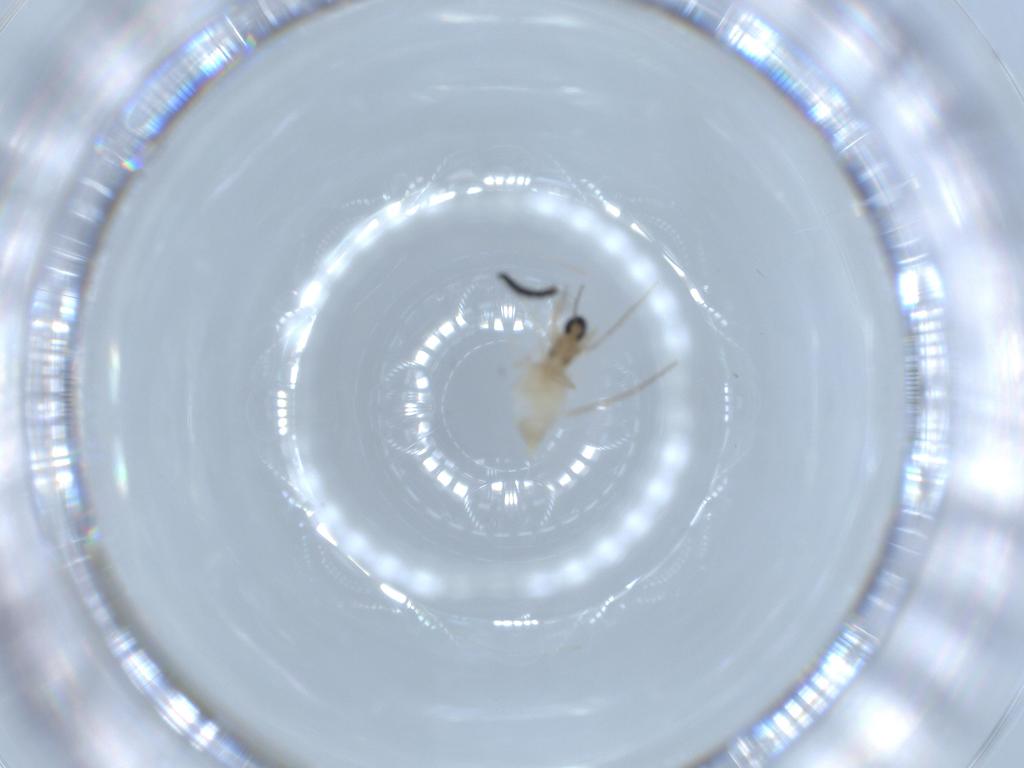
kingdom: Animalia
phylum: Arthropoda
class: Insecta
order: Diptera
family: Cecidomyiidae
